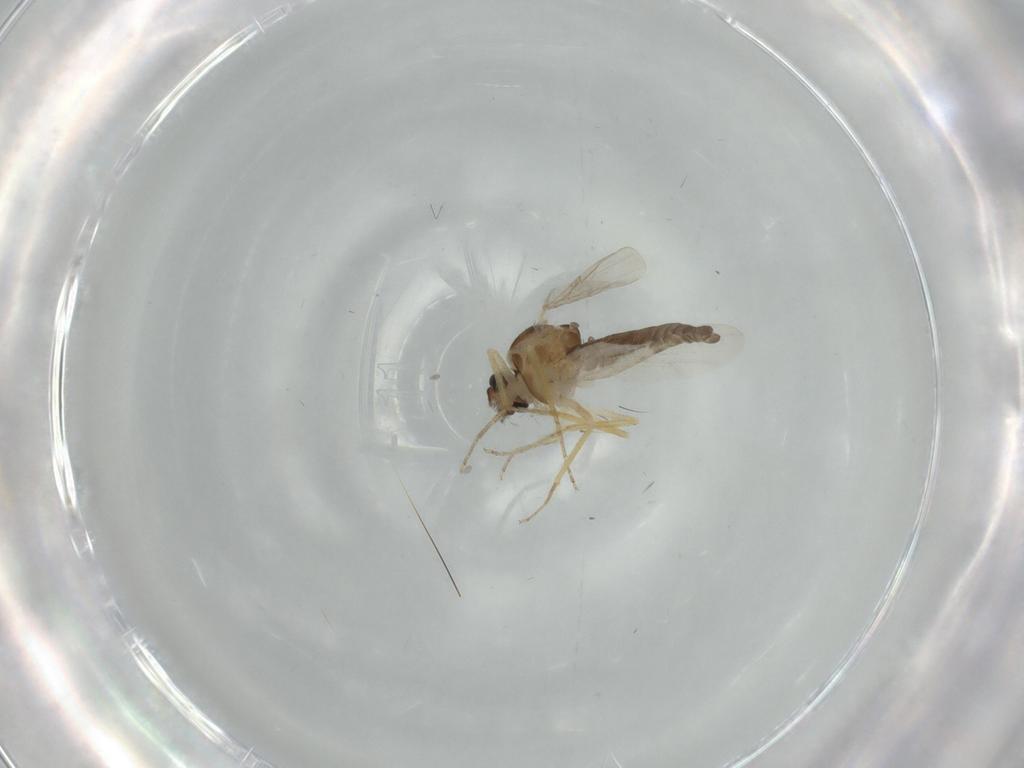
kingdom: Animalia
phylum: Arthropoda
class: Insecta
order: Diptera
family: Ceratopogonidae
